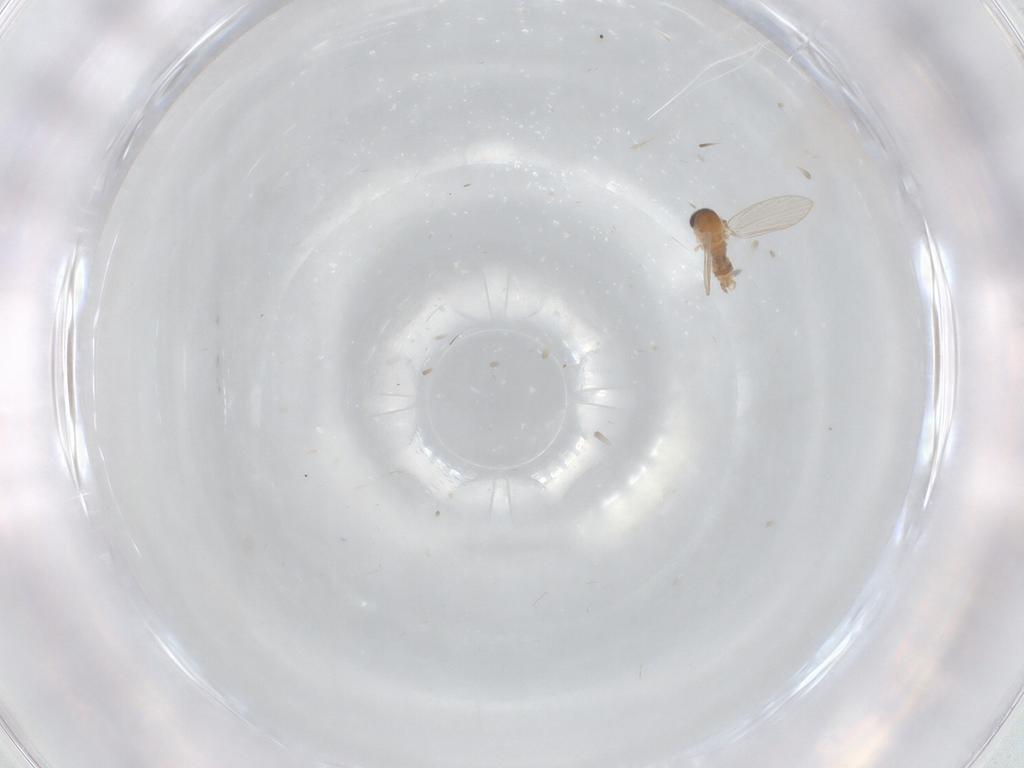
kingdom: Animalia
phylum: Arthropoda
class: Insecta
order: Diptera
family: Psychodidae
